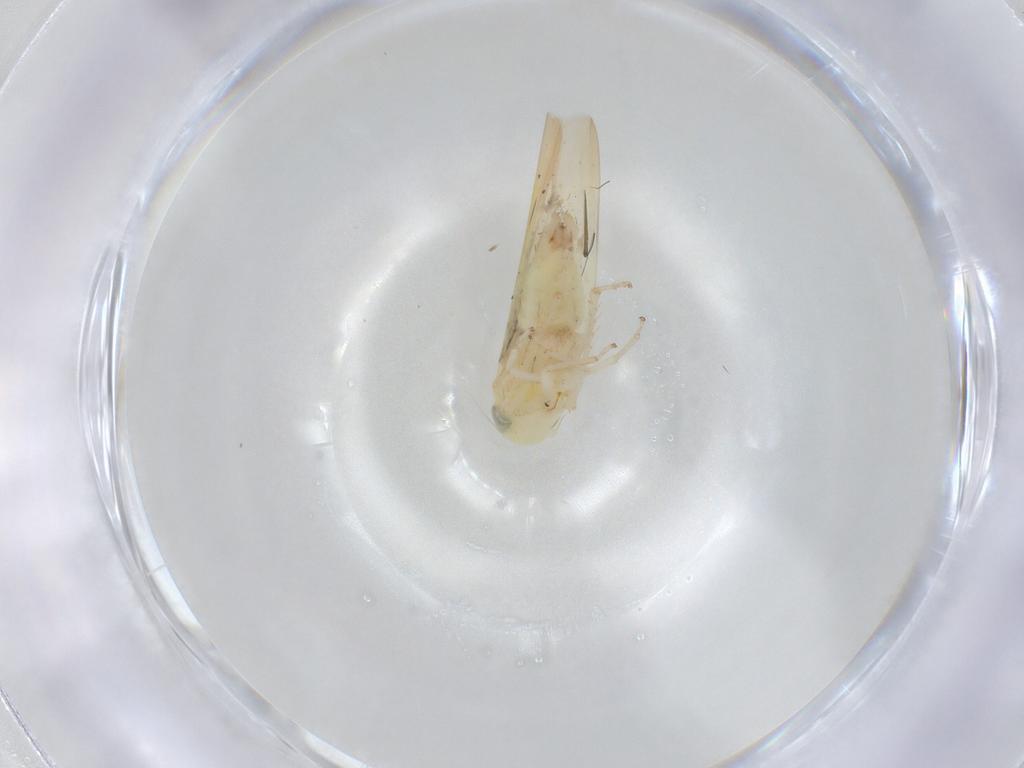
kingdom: Animalia
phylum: Arthropoda
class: Insecta
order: Hemiptera
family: Cicadellidae
